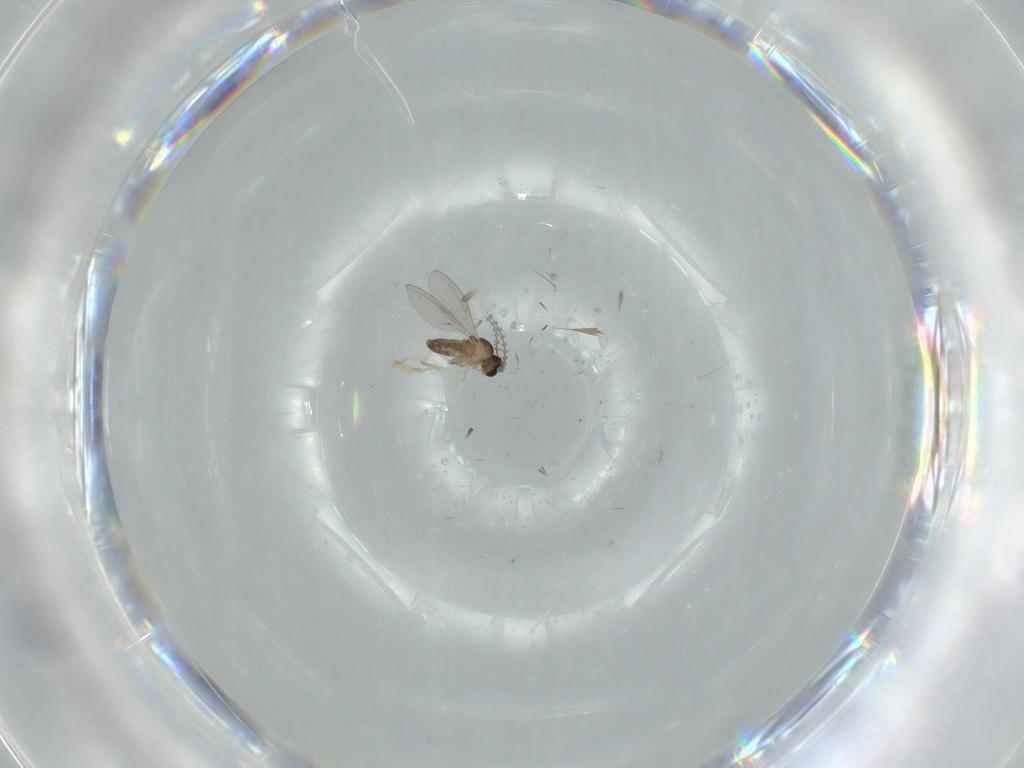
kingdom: Animalia
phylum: Arthropoda
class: Insecta
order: Diptera
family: Cecidomyiidae
